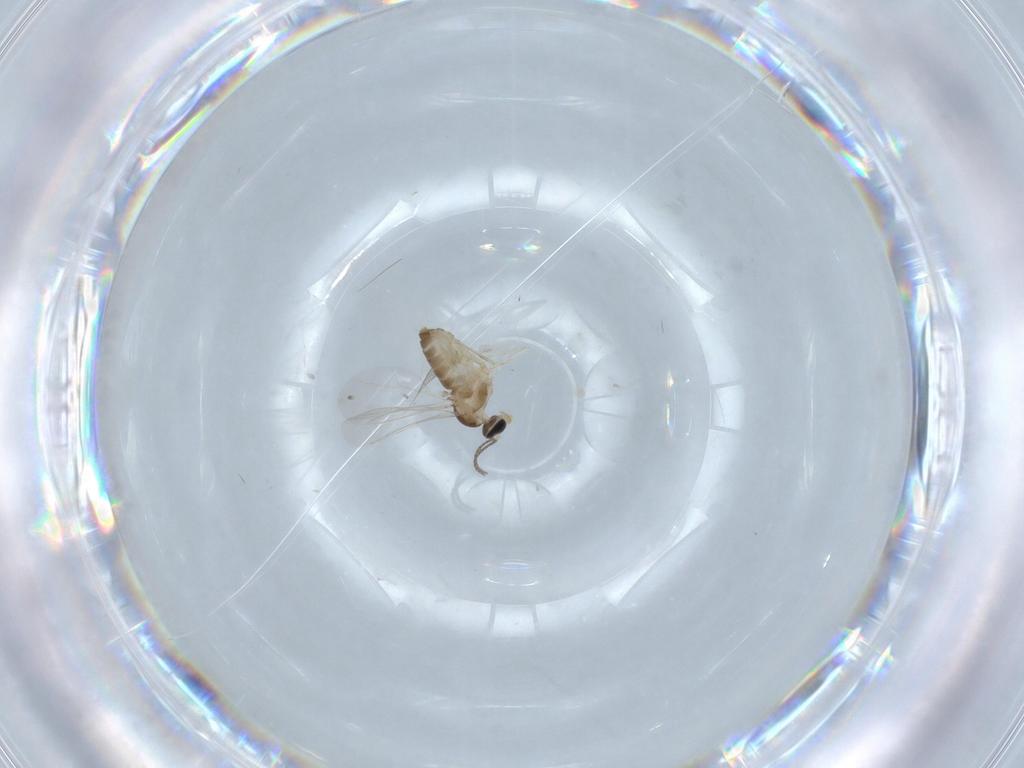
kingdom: Animalia
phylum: Arthropoda
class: Insecta
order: Diptera
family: Cecidomyiidae
